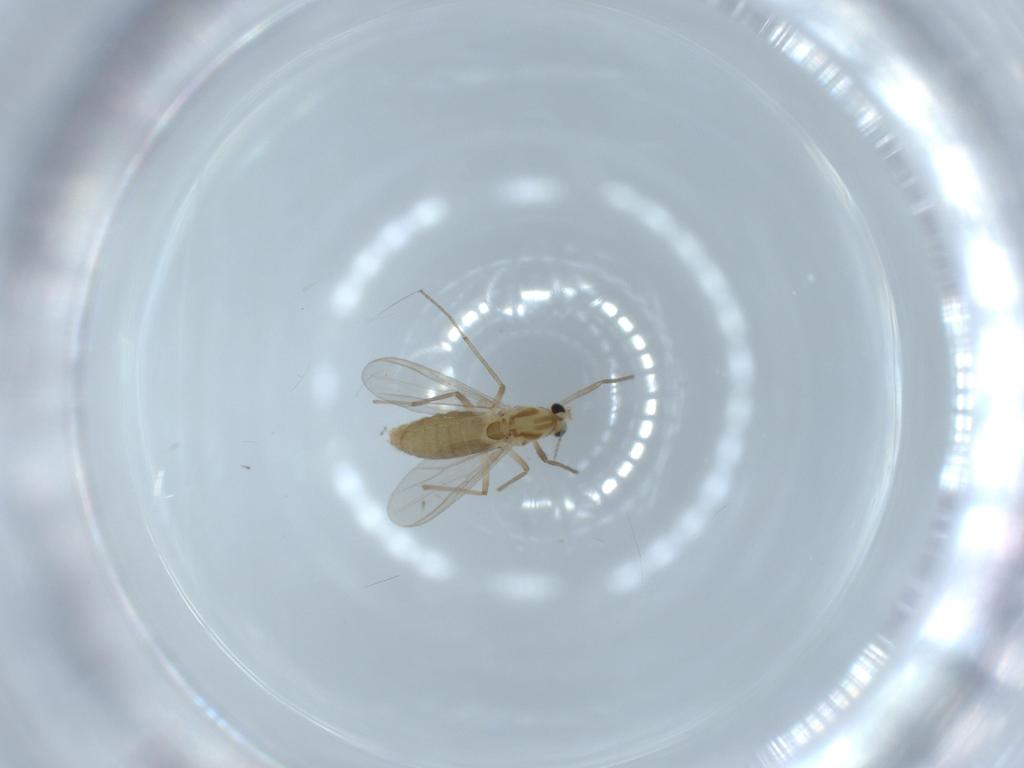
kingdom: Animalia
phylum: Arthropoda
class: Insecta
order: Diptera
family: Chironomidae
